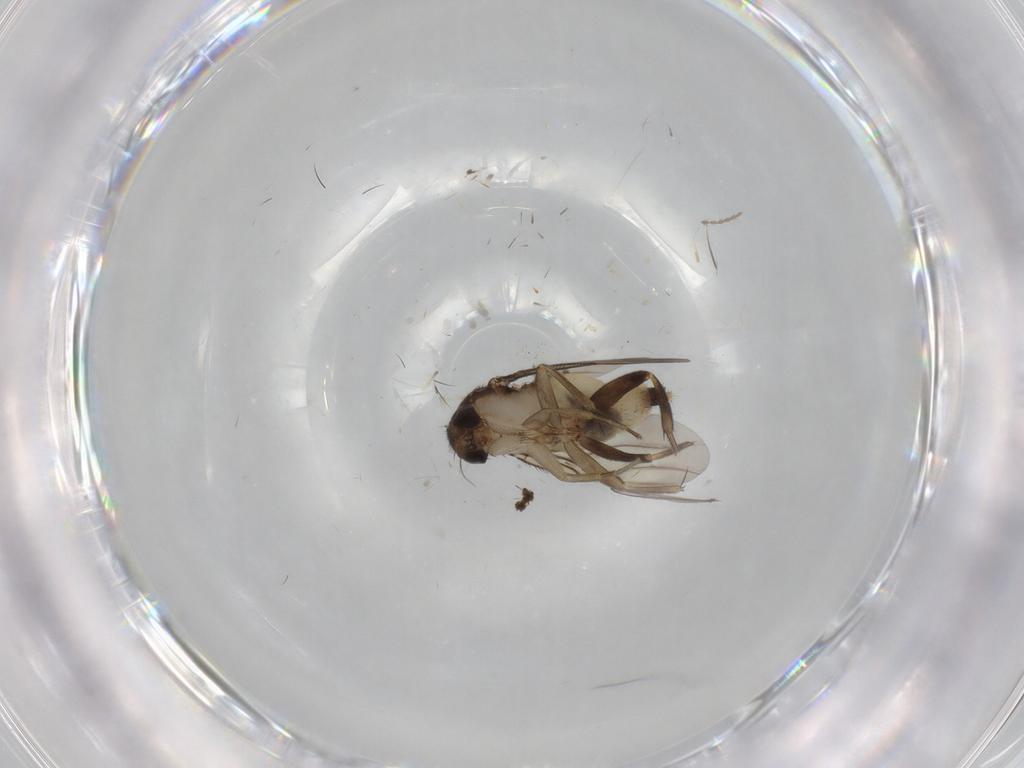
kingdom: Animalia
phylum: Arthropoda
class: Insecta
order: Diptera
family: Phoridae
